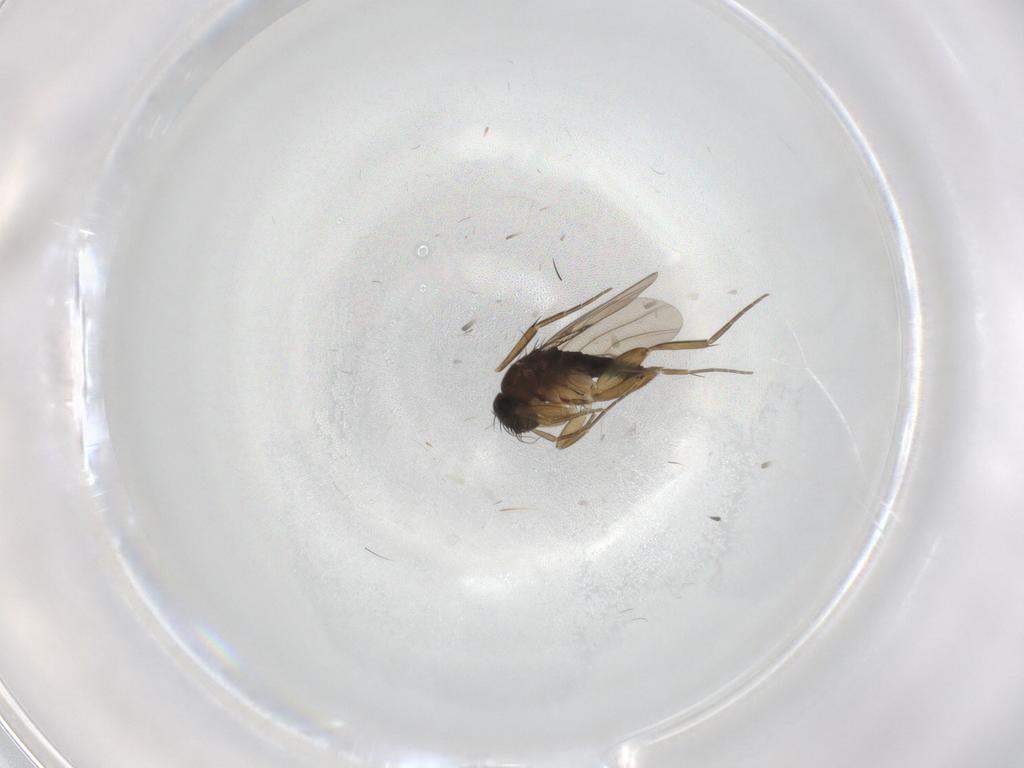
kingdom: Animalia
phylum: Arthropoda
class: Insecta
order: Diptera
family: Phoridae
